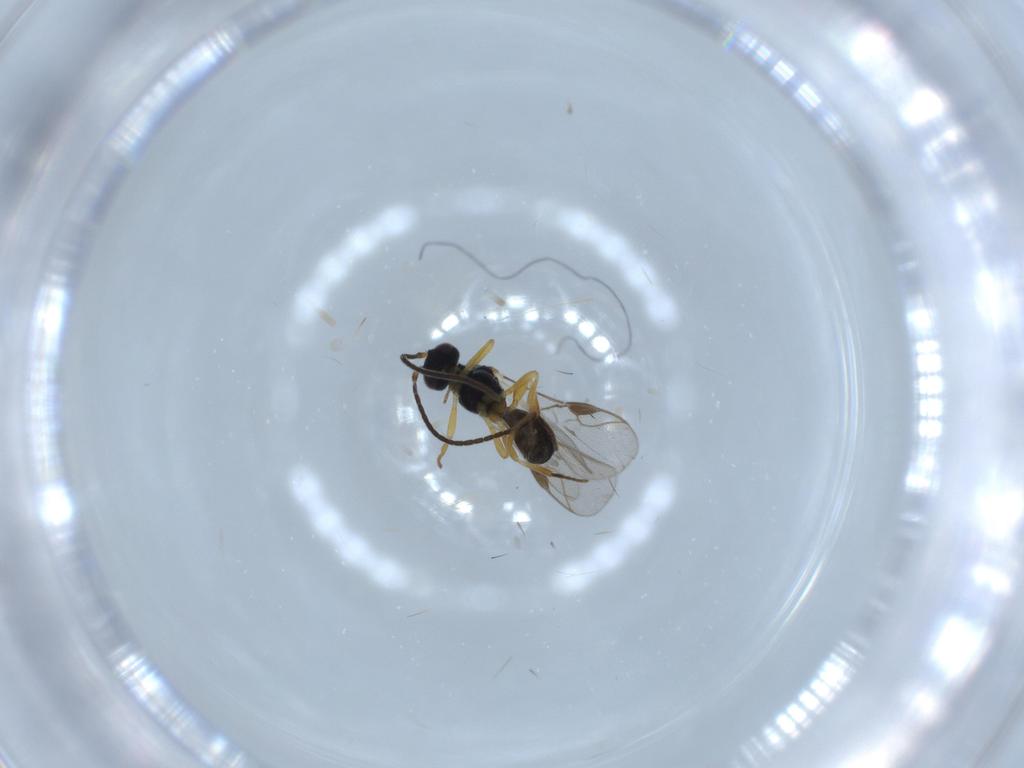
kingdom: Animalia
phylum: Arthropoda
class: Insecta
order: Hymenoptera
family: Braconidae
